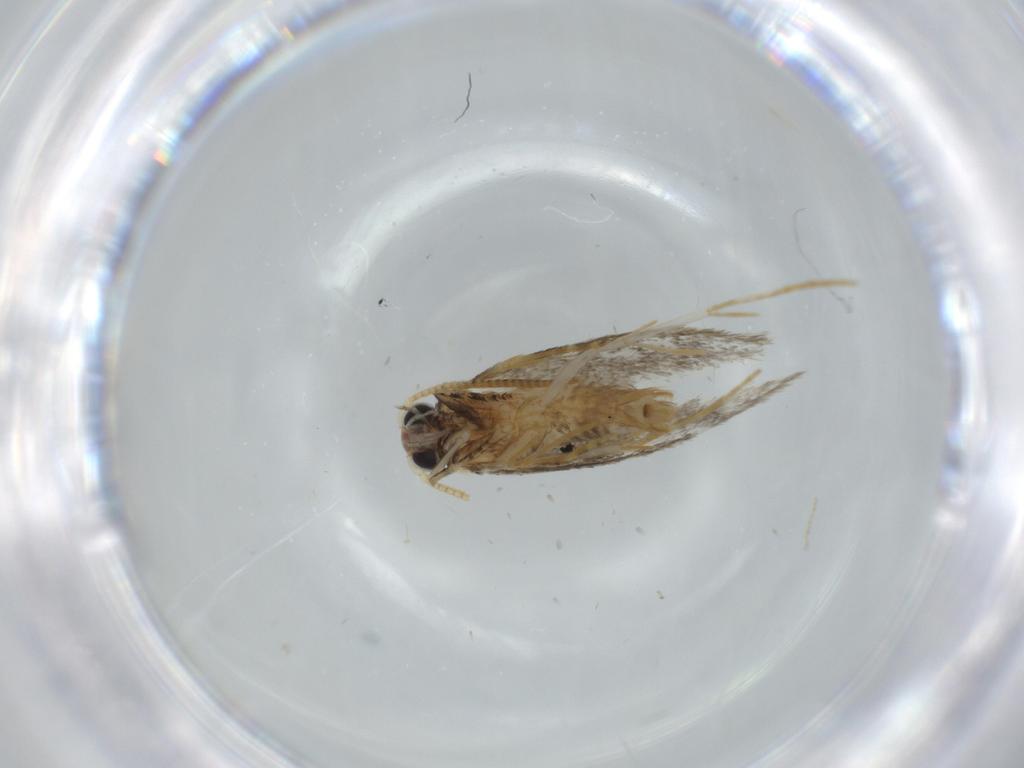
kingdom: Animalia
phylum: Arthropoda
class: Insecta
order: Lepidoptera
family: Tineidae
